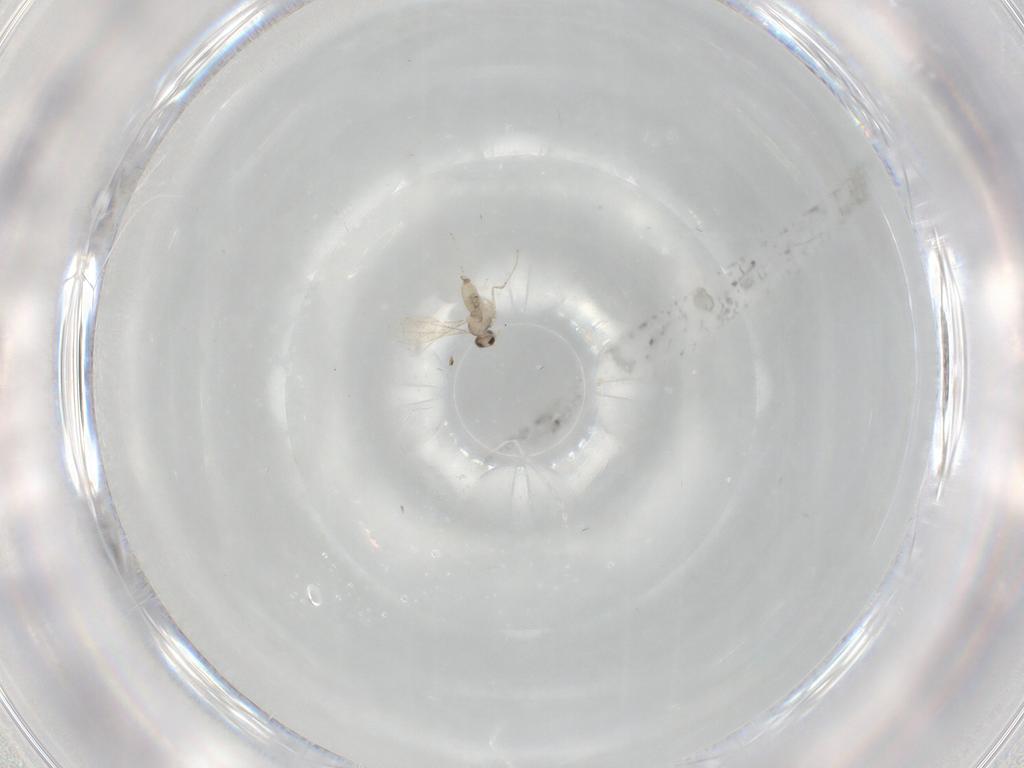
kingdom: Animalia
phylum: Arthropoda
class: Insecta
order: Diptera
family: Cecidomyiidae
